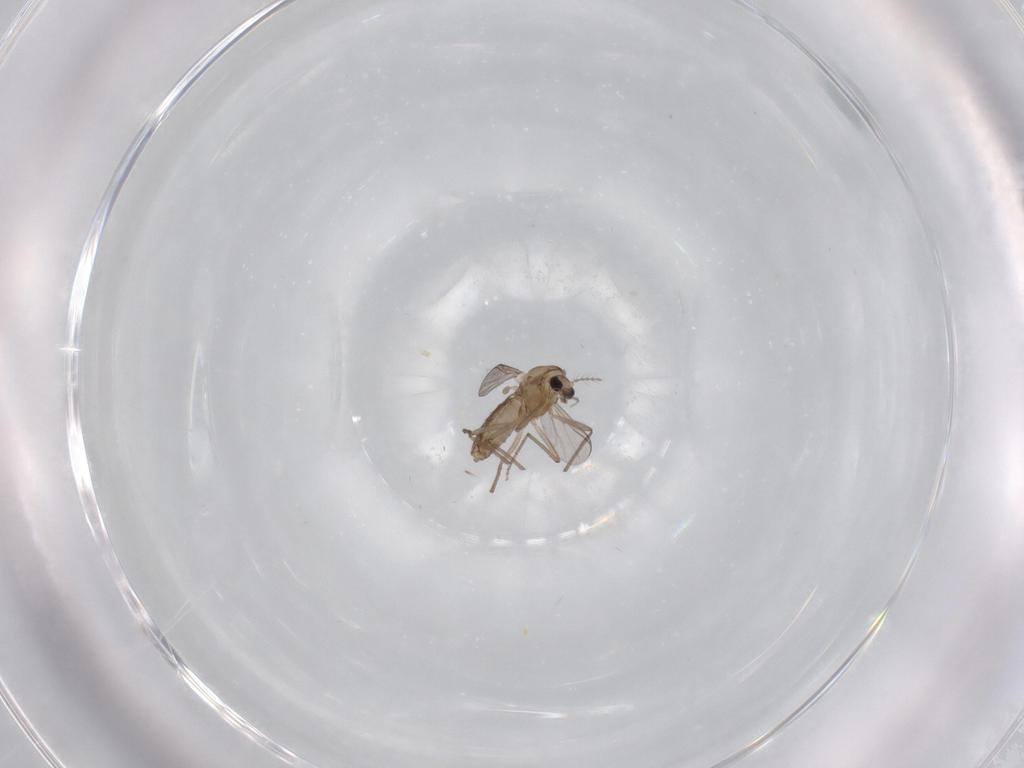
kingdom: Animalia
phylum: Arthropoda
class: Insecta
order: Diptera
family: Chironomidae
